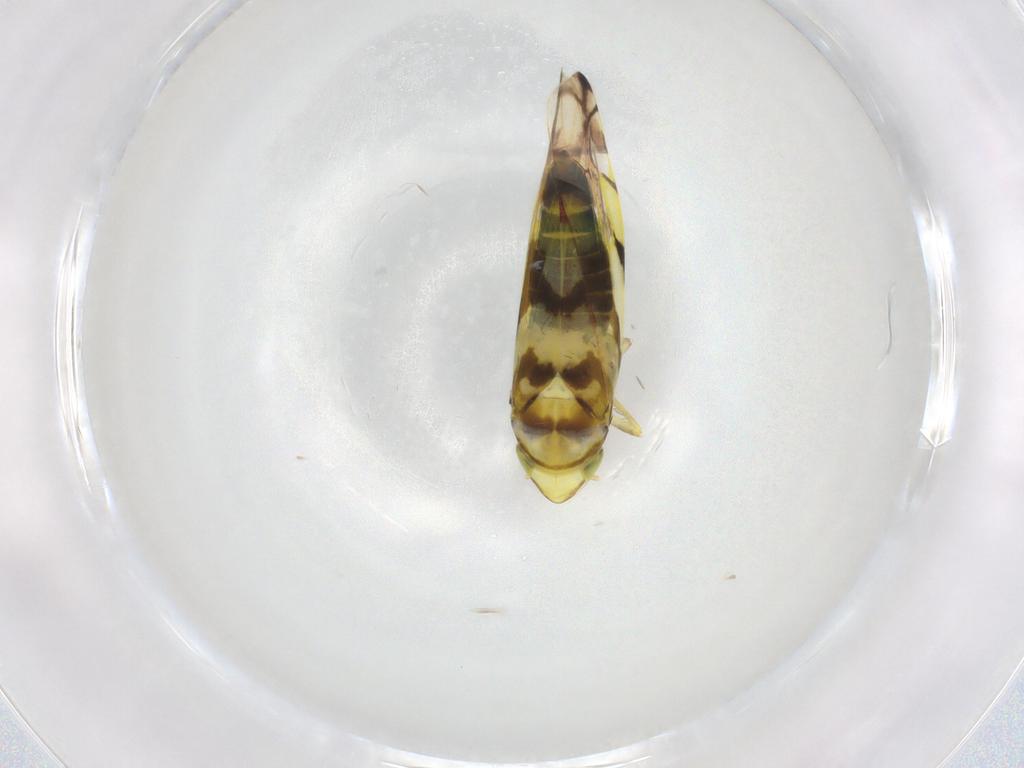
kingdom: Animalia
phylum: Arthropoda
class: Insecta
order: Hemiptera
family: Cicadellidae
